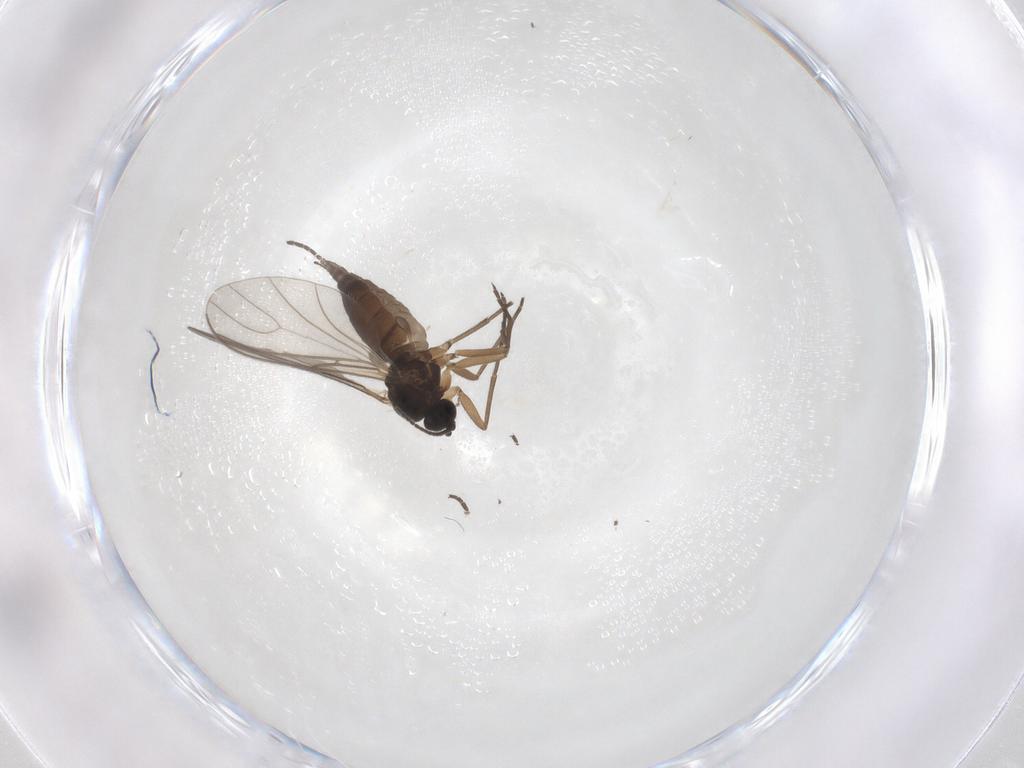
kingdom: Animalia
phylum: Arthropoda
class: Insecta
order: Diptera
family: Sciaridae
